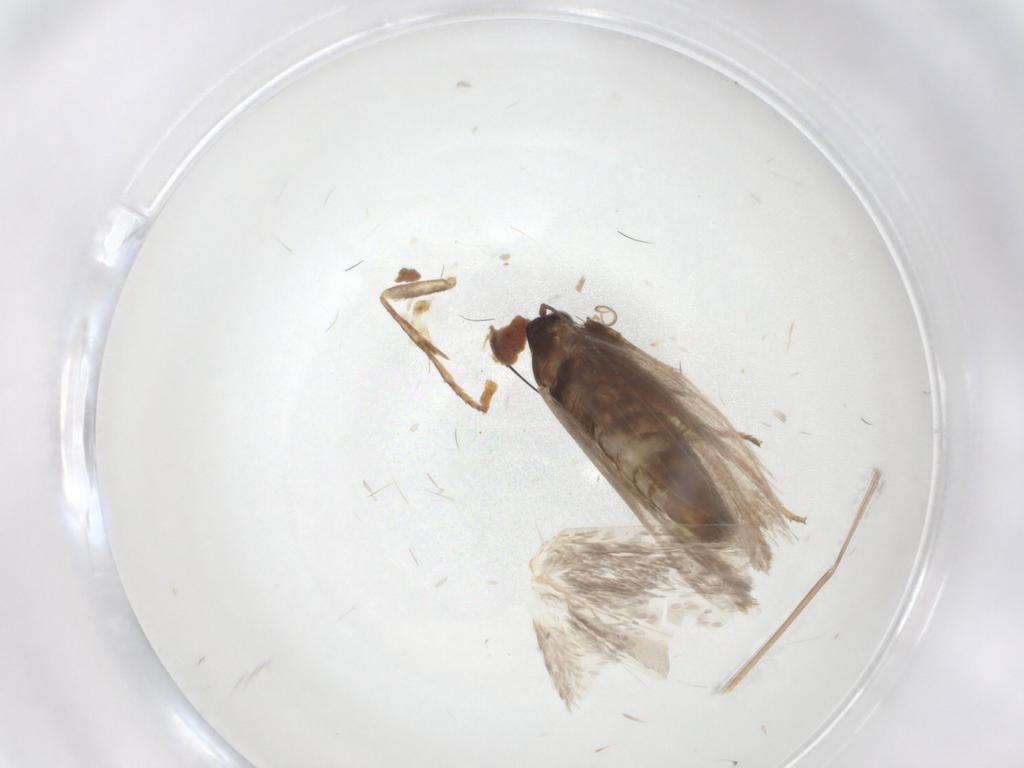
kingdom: Animalia
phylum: Arthropoda
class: Insecta
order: Lepidoptera
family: Nepticulidae
